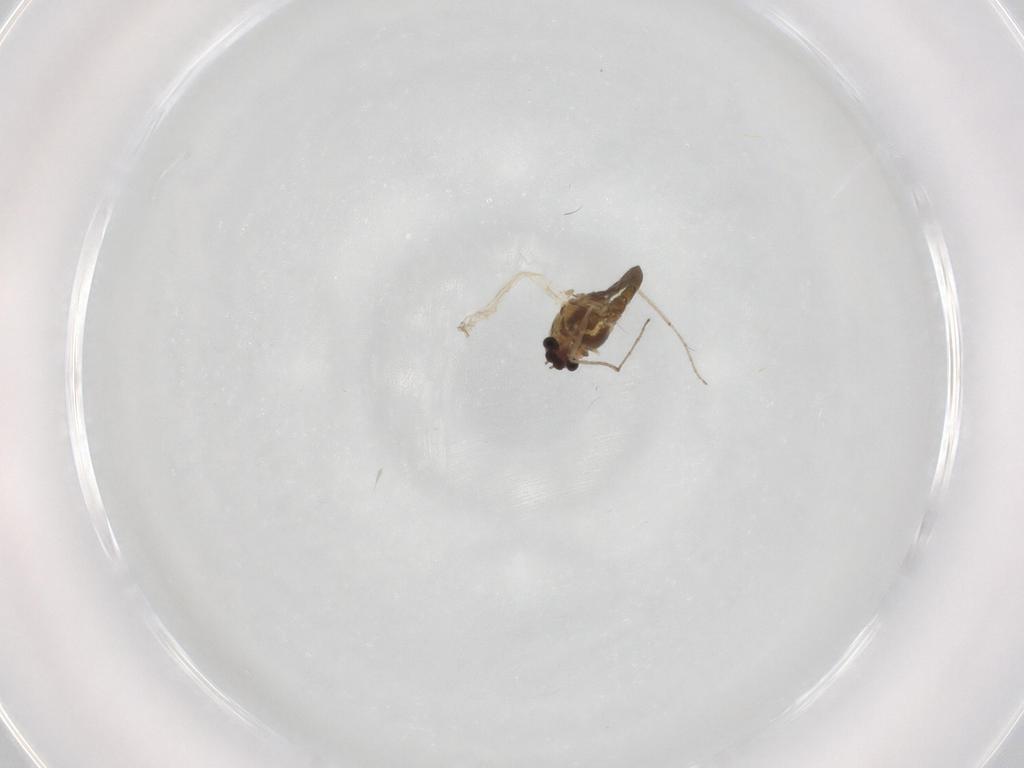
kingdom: Animalia
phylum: Arthropoda
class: Insecta
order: Diptera
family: Chironomidae
